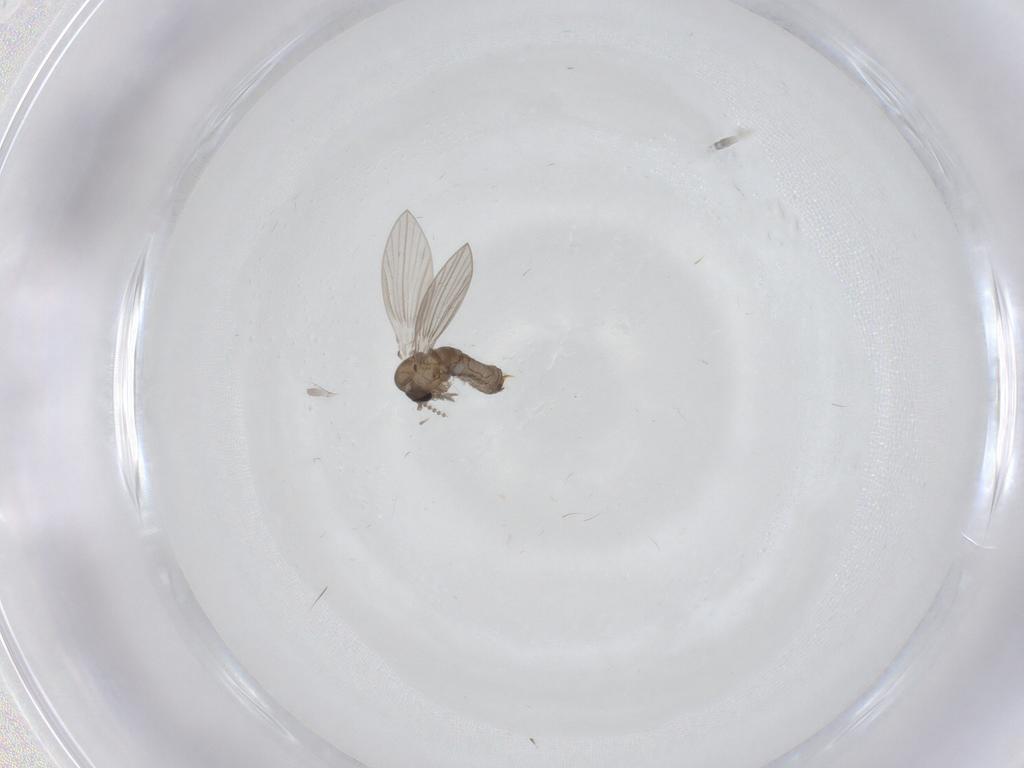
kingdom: Animalia
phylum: Arthropoda
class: Insecta
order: Diptera
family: Psychodidae
